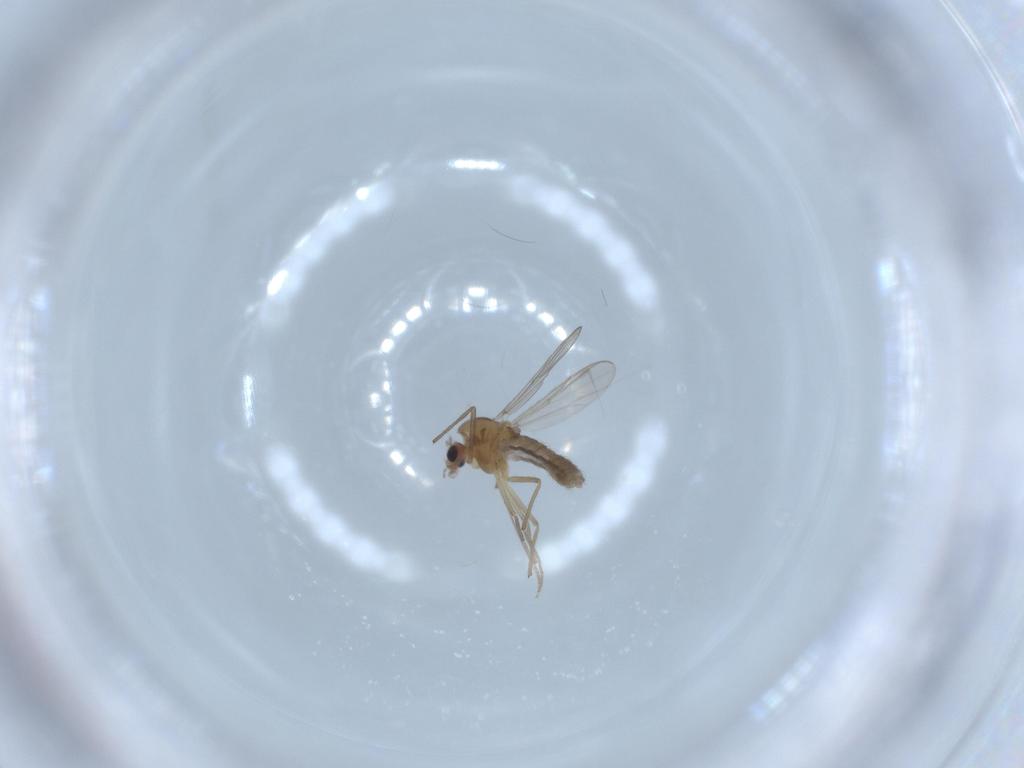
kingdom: Animalia
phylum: Arthropoda
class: Insecta
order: Diptera
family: Chironomidae
